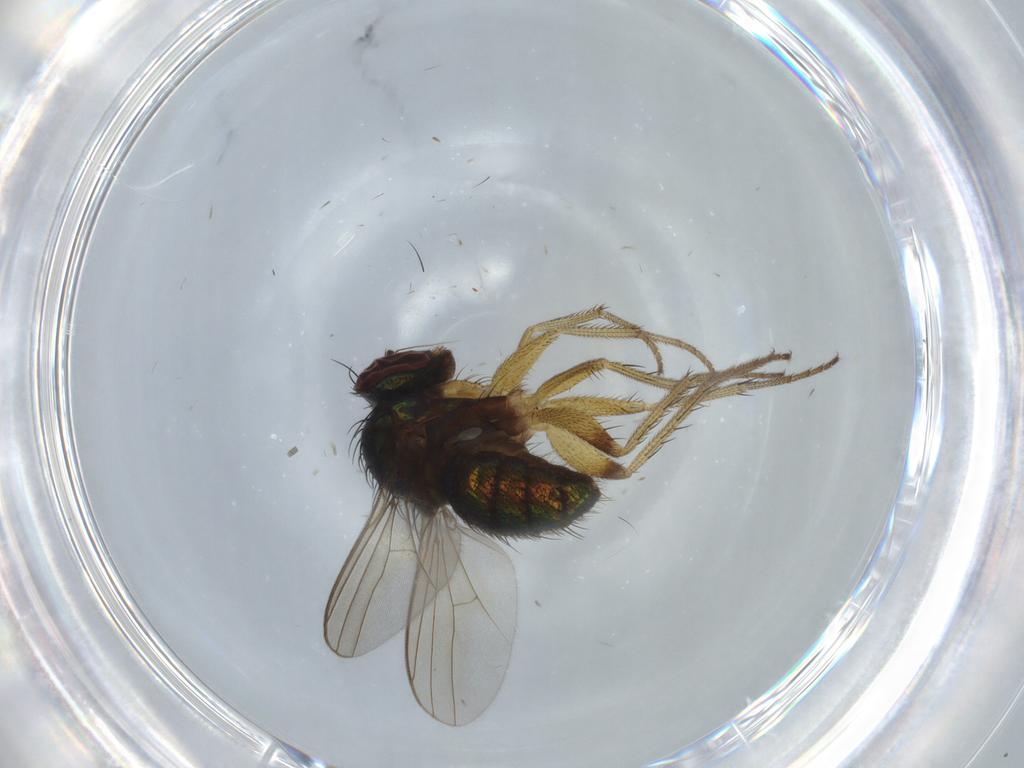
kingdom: Animalia
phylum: Arthropoda
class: Insecta
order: Diptera
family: Dolichopodidae
